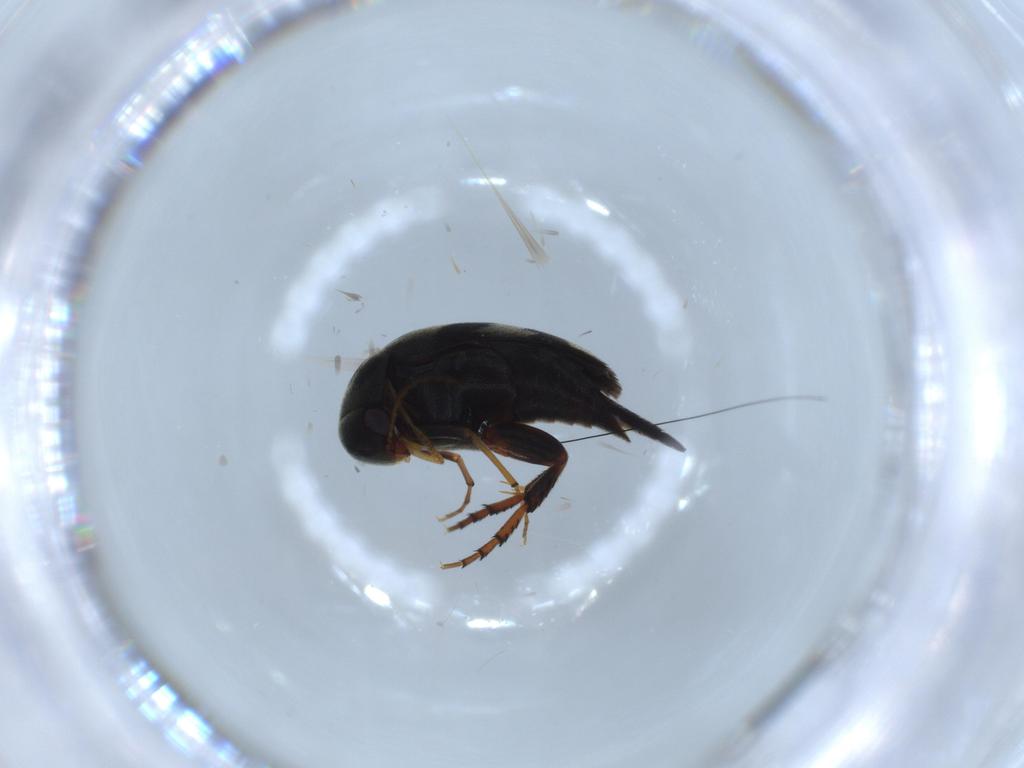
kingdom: Animalia
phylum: Arthropoda
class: Insecta
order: Coleoptera
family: Mordellidae
